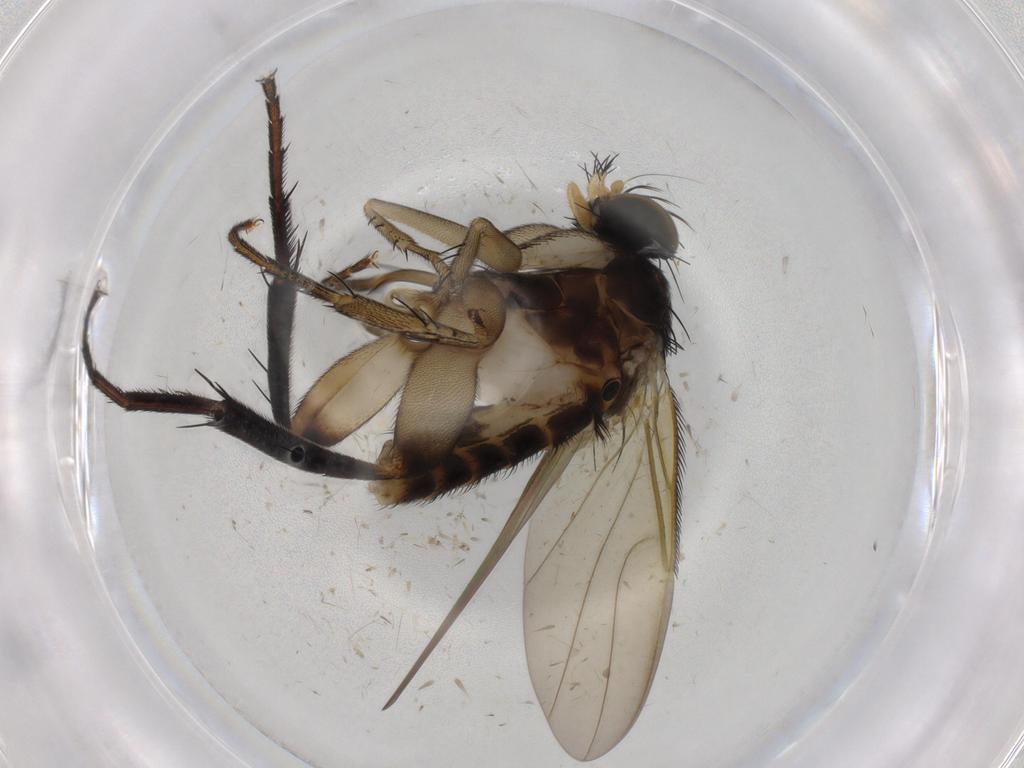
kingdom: Animalia
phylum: Arthropoda
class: Insecta
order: Diptera
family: Phoridae
